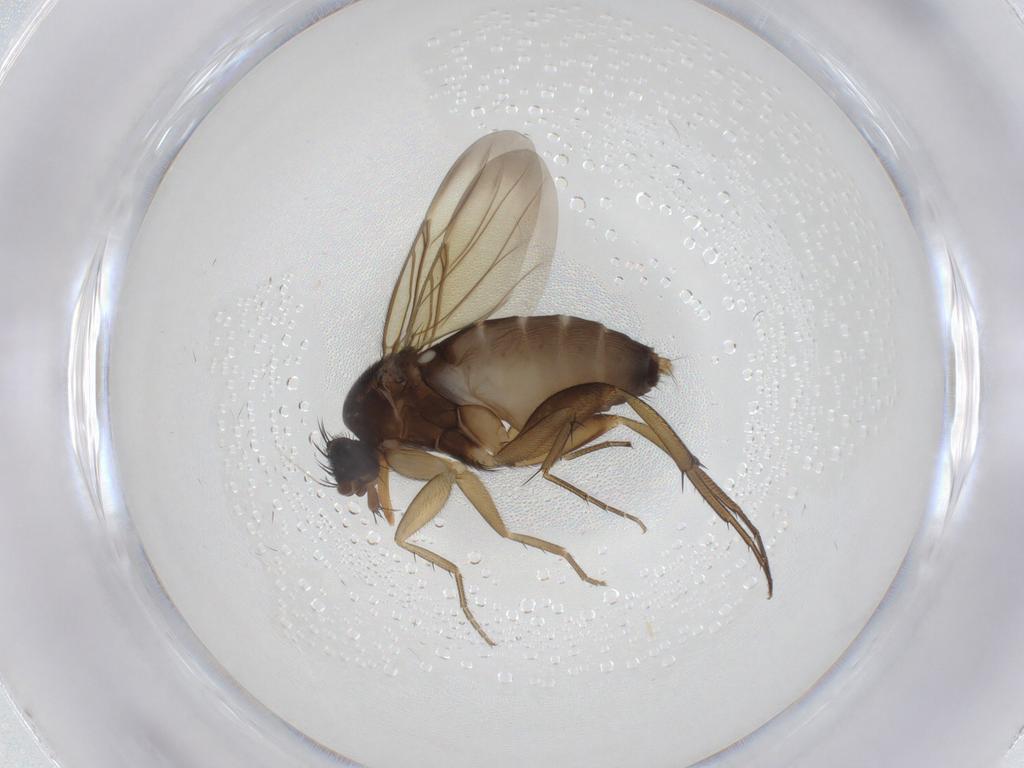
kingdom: Animalia
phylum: Arthropoda
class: Insecta
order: Diptera
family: Phoridae
